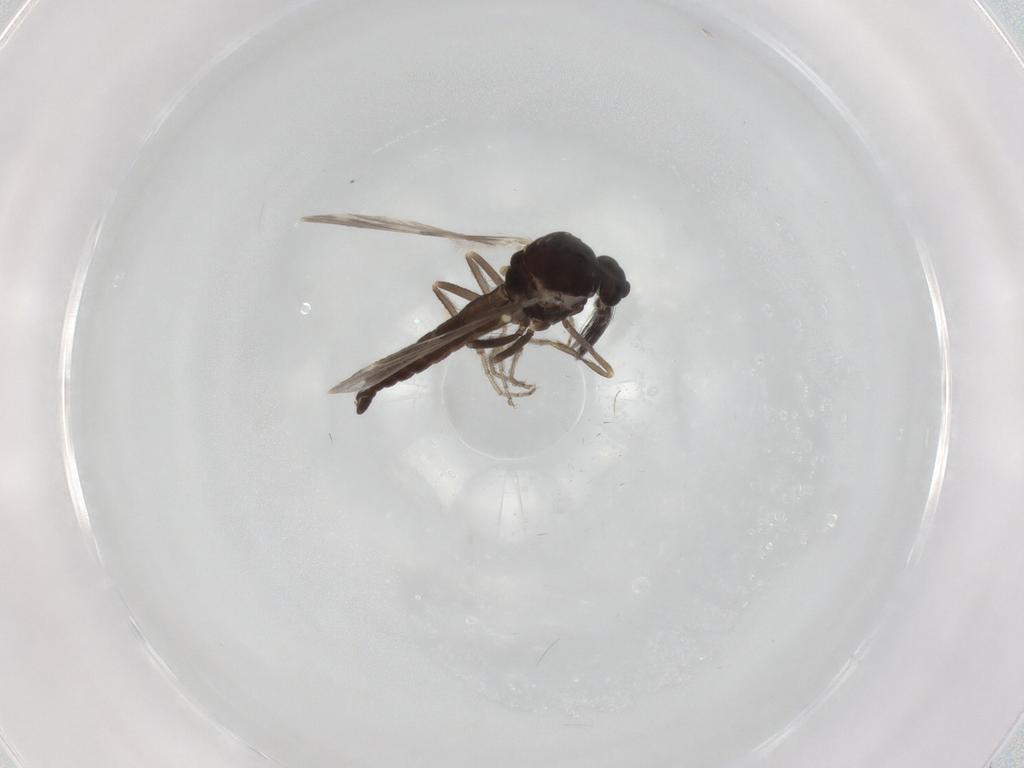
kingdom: Animalia
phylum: Arthropoda
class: Insecta
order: Diptera
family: Ceratopogonidae
